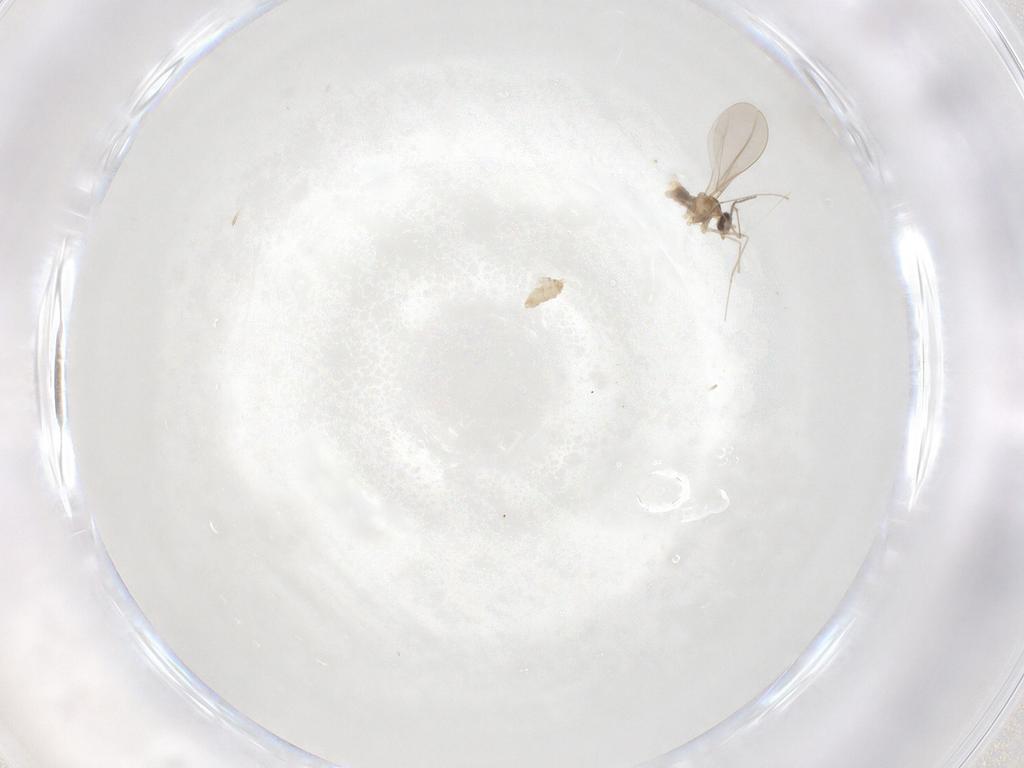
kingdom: Animalia
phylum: Arthropoda
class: Insecta
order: Diptera
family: Cecidomyiidae
